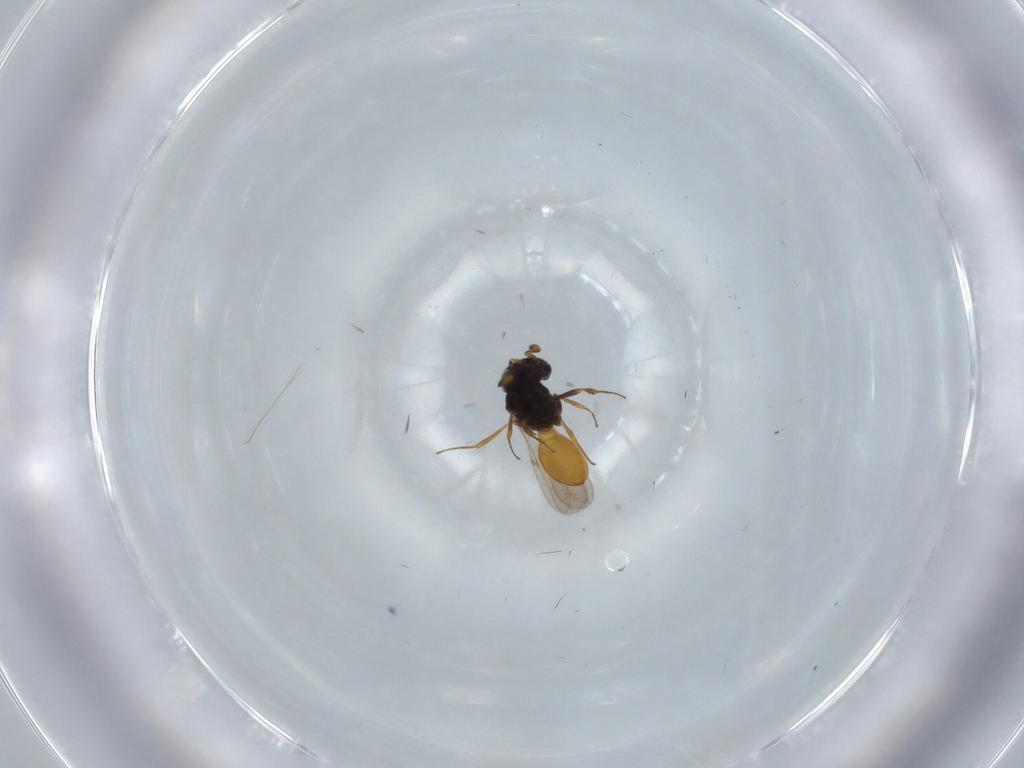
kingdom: Animalia
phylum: Arthropoda
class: Insecta
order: Hymenoptera
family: Scelionidae
